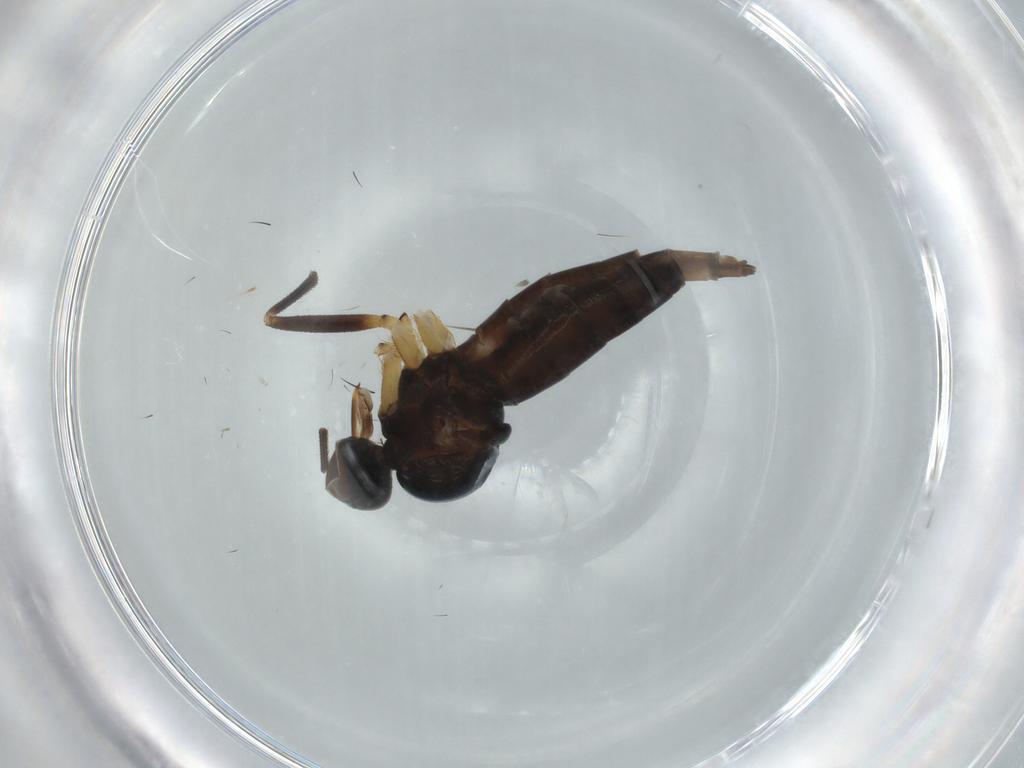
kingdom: Animalia
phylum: Arthropoda
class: Insecta
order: Diptera
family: Empididae
